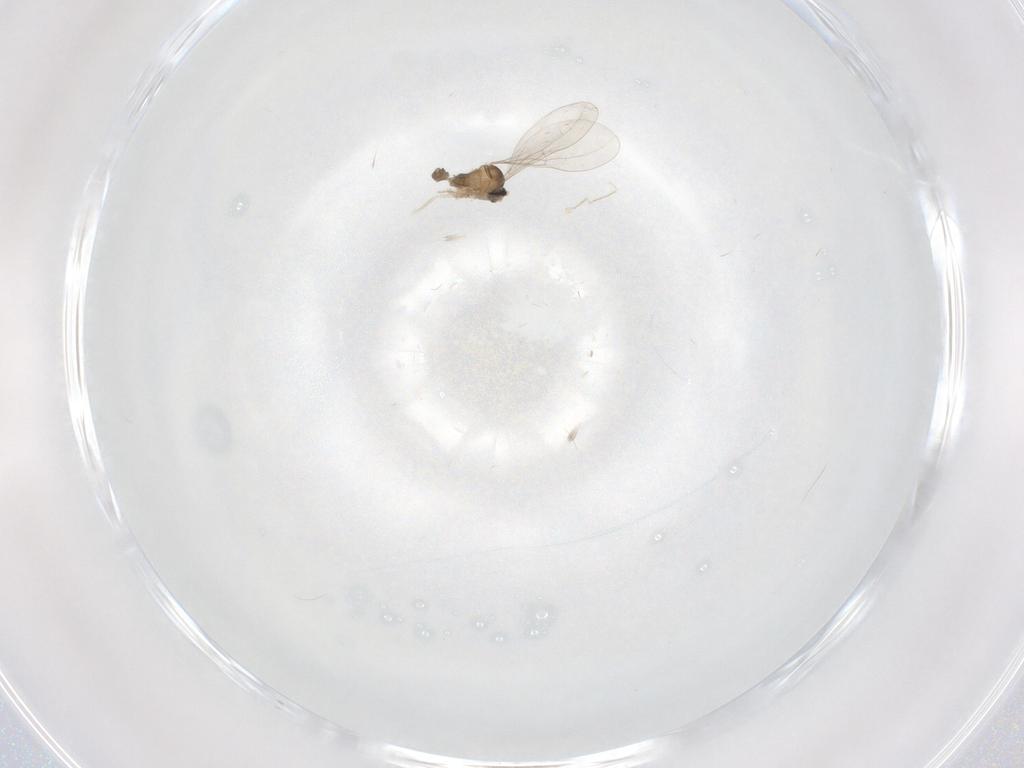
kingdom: Animalia
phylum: Arthropoda
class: Insecta
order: Diptera
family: Cecidomyiidae
